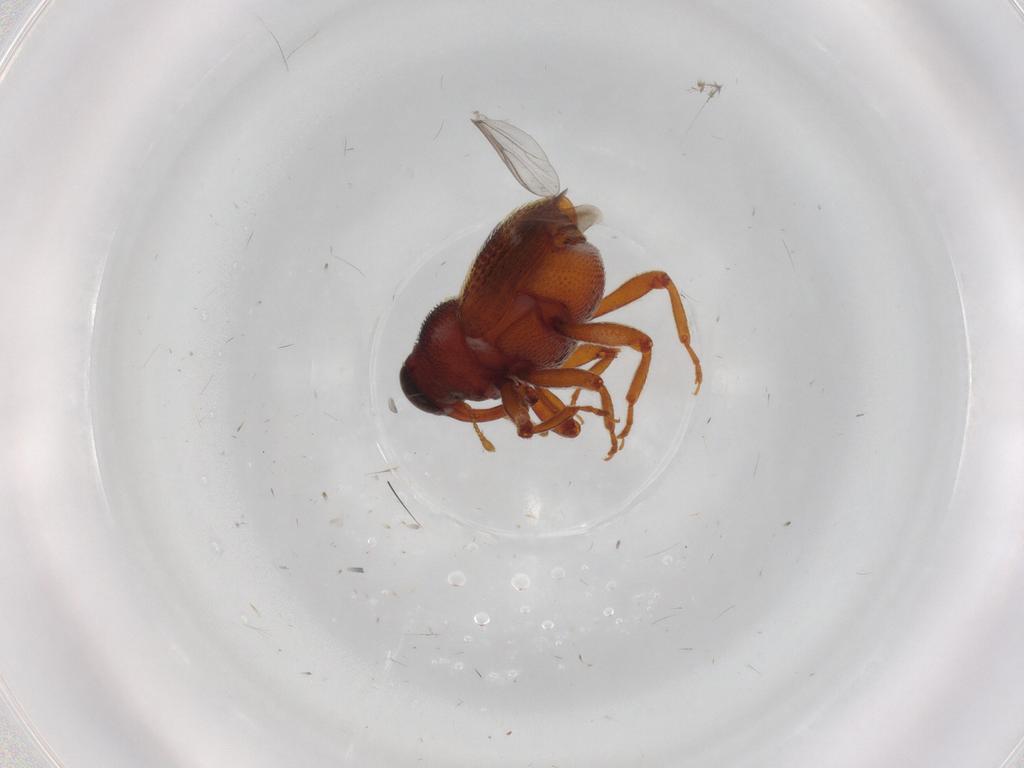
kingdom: Animalia
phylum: Arthropoda
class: Insecta
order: Coleoptera
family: Curculionidae
